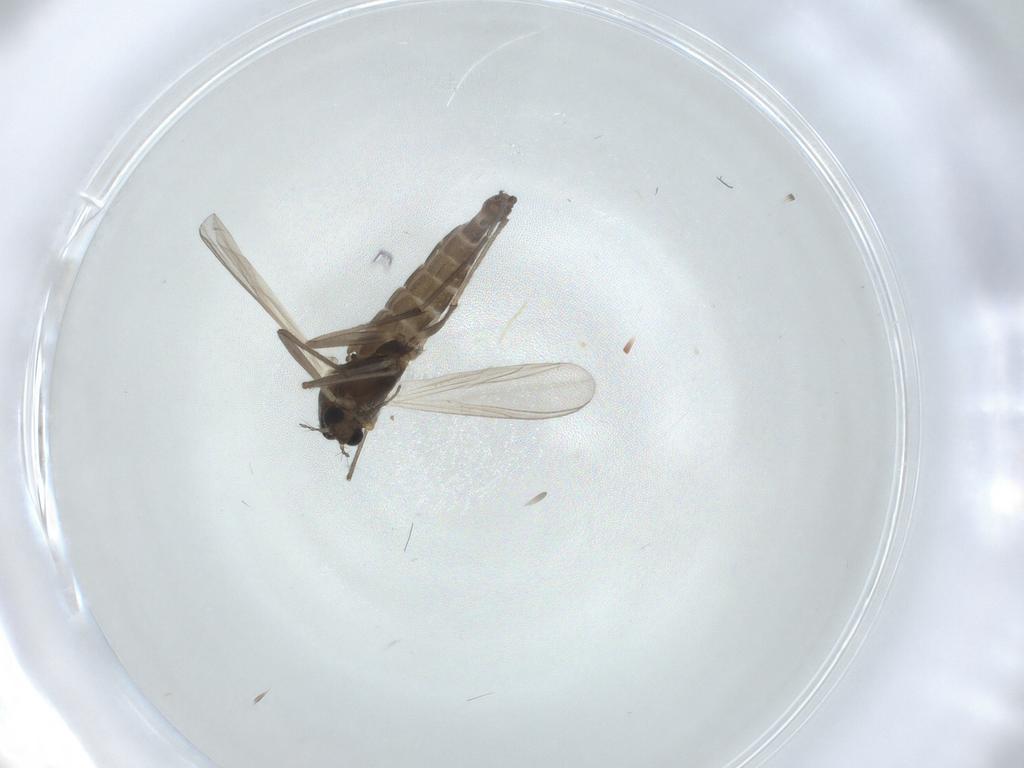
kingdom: Animalia
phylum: Arthropoda
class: Insecta
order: Diptera
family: Chironomidae
